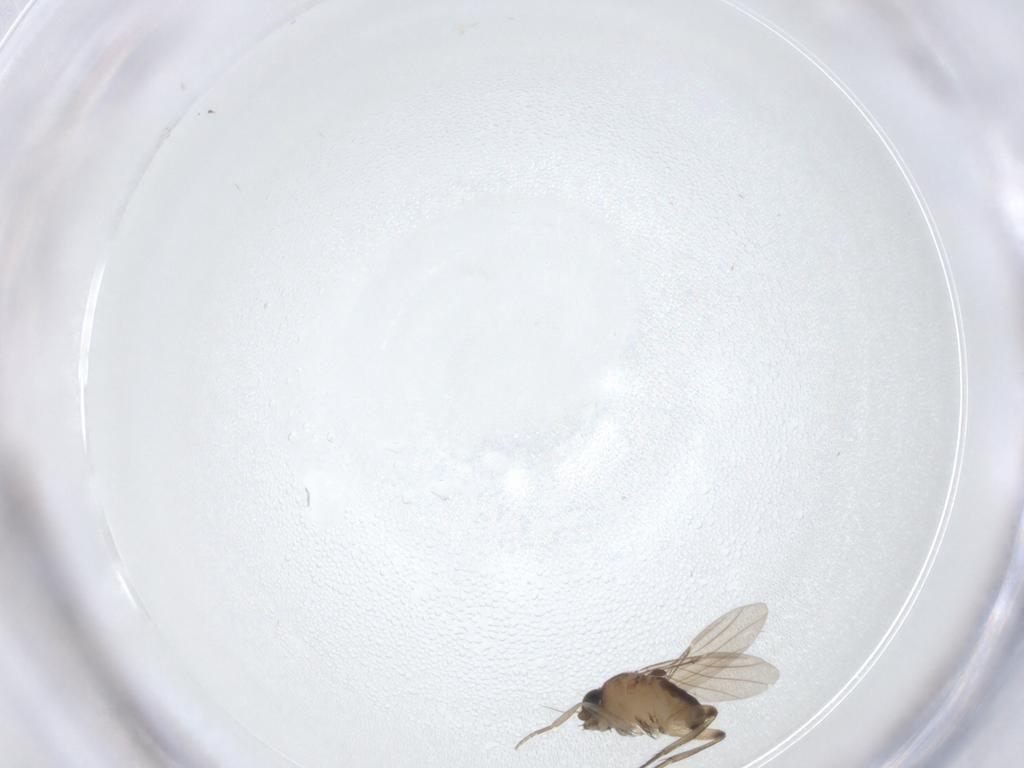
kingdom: Animalia
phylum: Arthropoda
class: Insecta
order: Diptera
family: Phoridae
